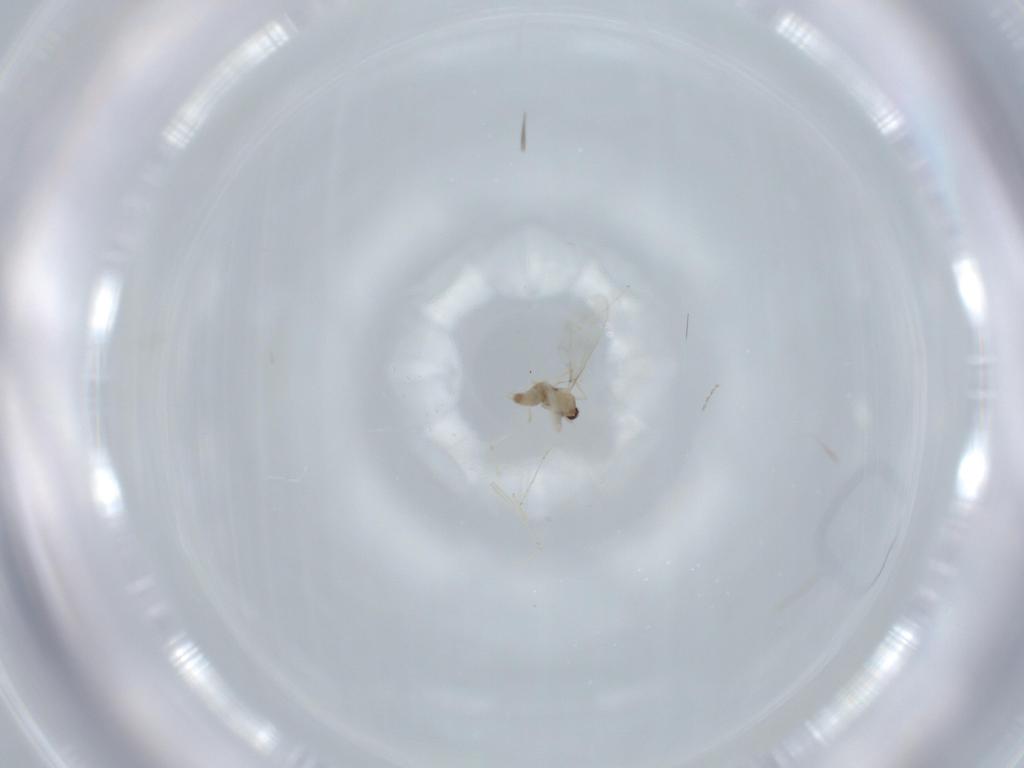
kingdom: Animalia
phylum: Arthropoda
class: Insecta
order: Diptera
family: Cecidomyiidae
